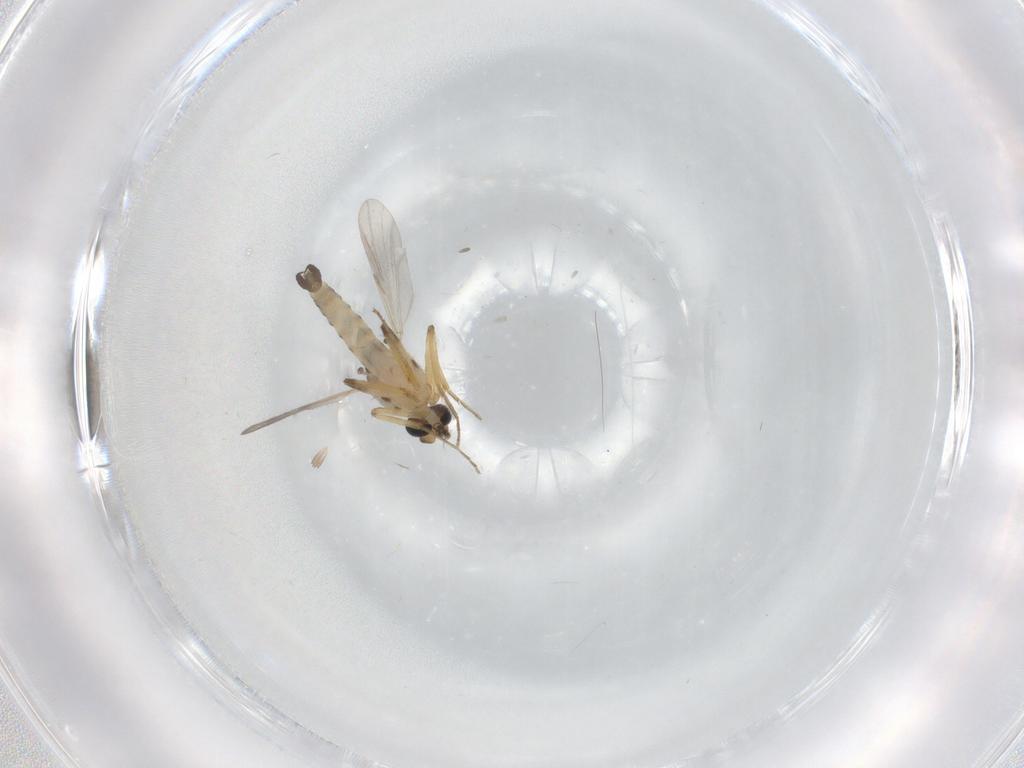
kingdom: Animalia
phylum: Arthropoda
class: Insecta
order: Diptera
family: Ceratopogonidae
